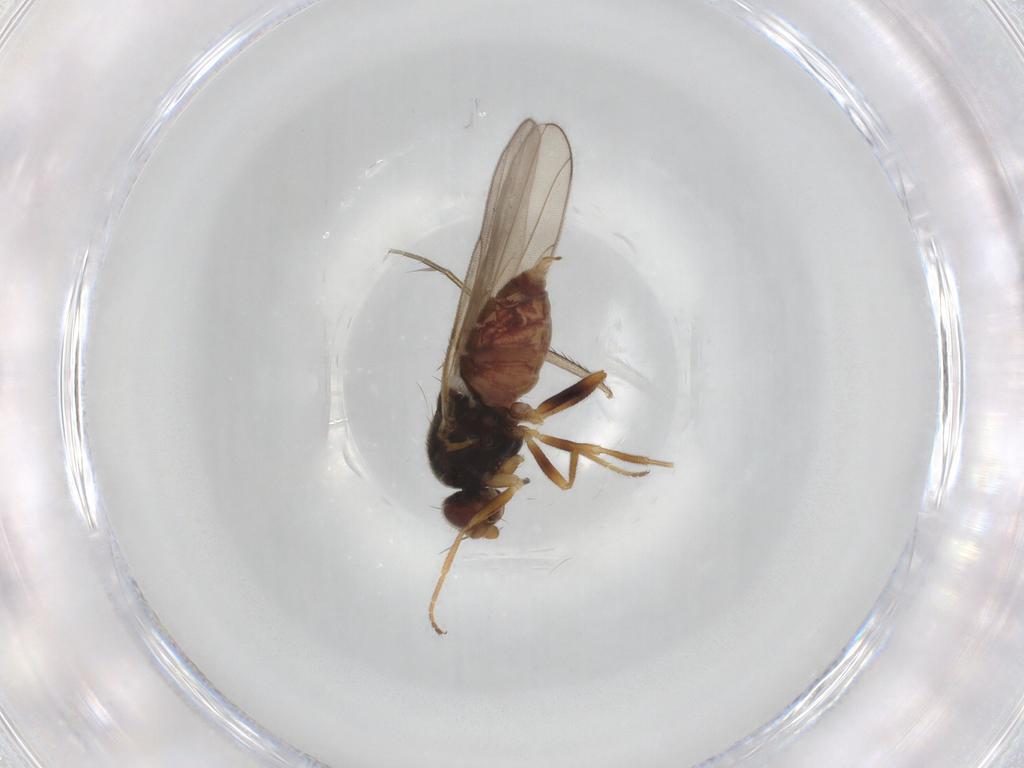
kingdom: Animalia
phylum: Arthropoda
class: Insecta
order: Diptera
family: Chloropidae
